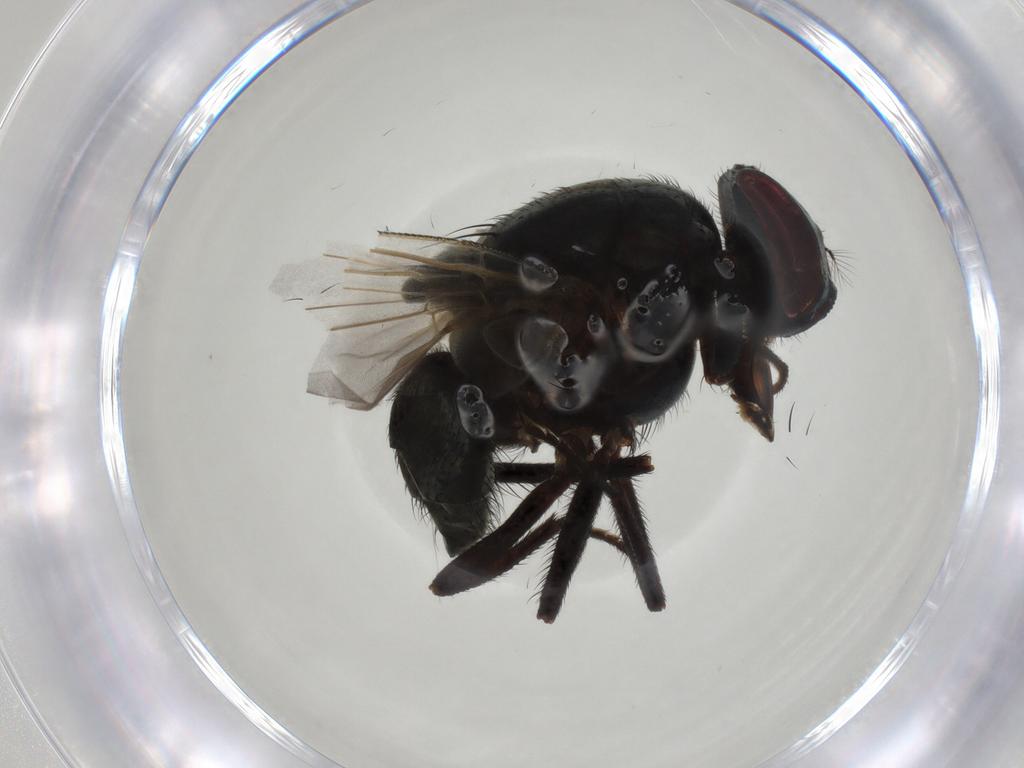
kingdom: Animalia
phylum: Arthropoda
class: Insecta
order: Diptera
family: Muscidae
